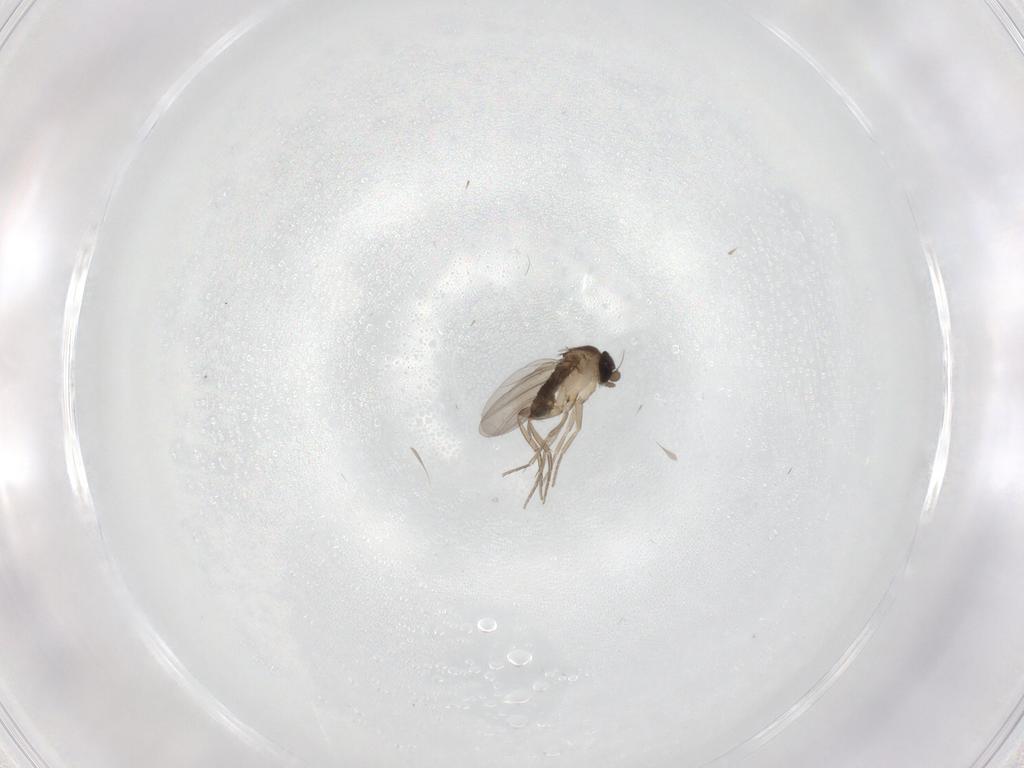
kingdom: Animalia
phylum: Arthropoda
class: Insecta
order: Diptera
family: Phoridae
